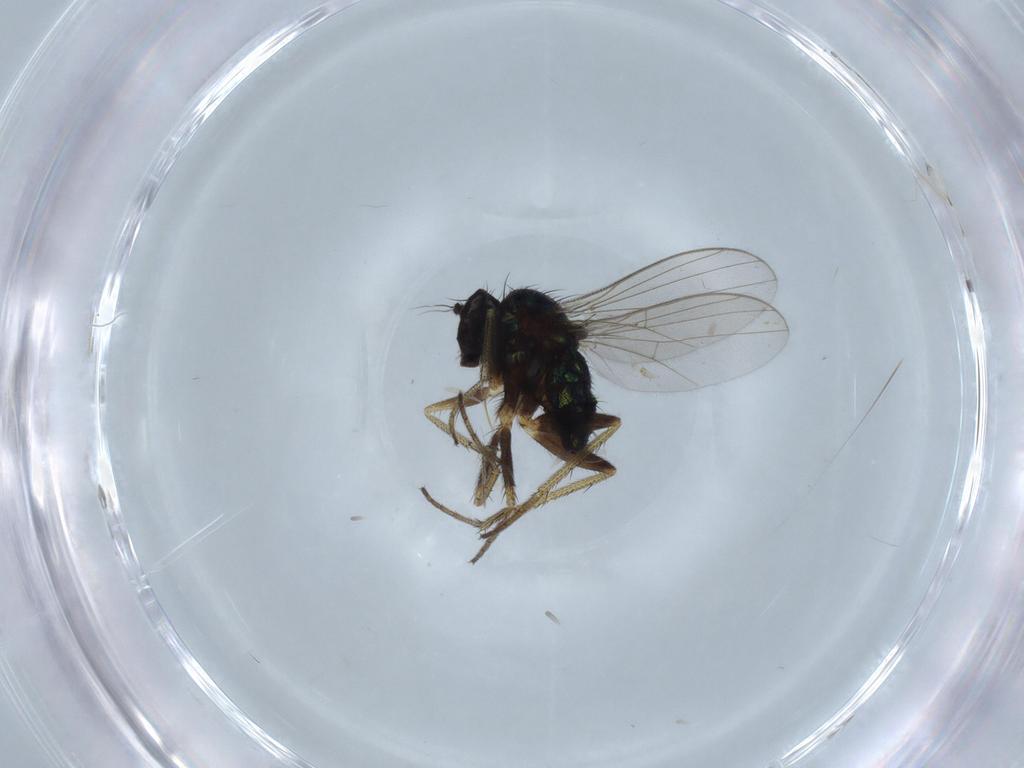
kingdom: Animalia
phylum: Arthropoda
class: Insecta
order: Diptera
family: Cecidomyiidae
